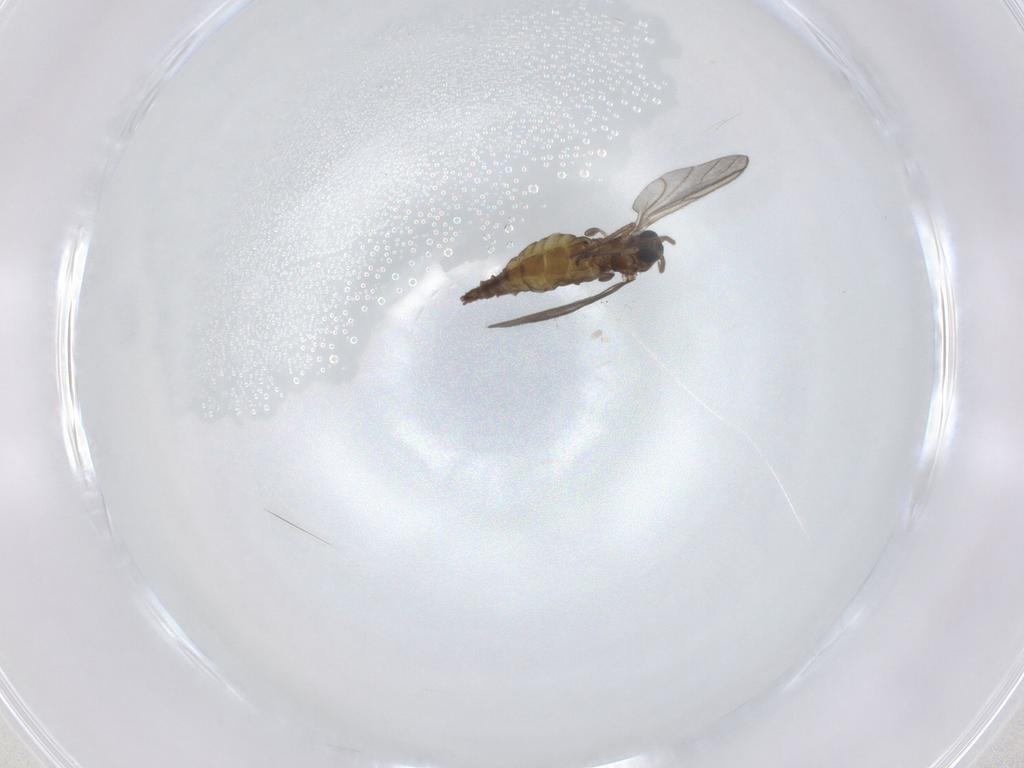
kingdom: Animalia
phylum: Arthropoda
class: Insecta
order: Diptera
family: Sciaridae
